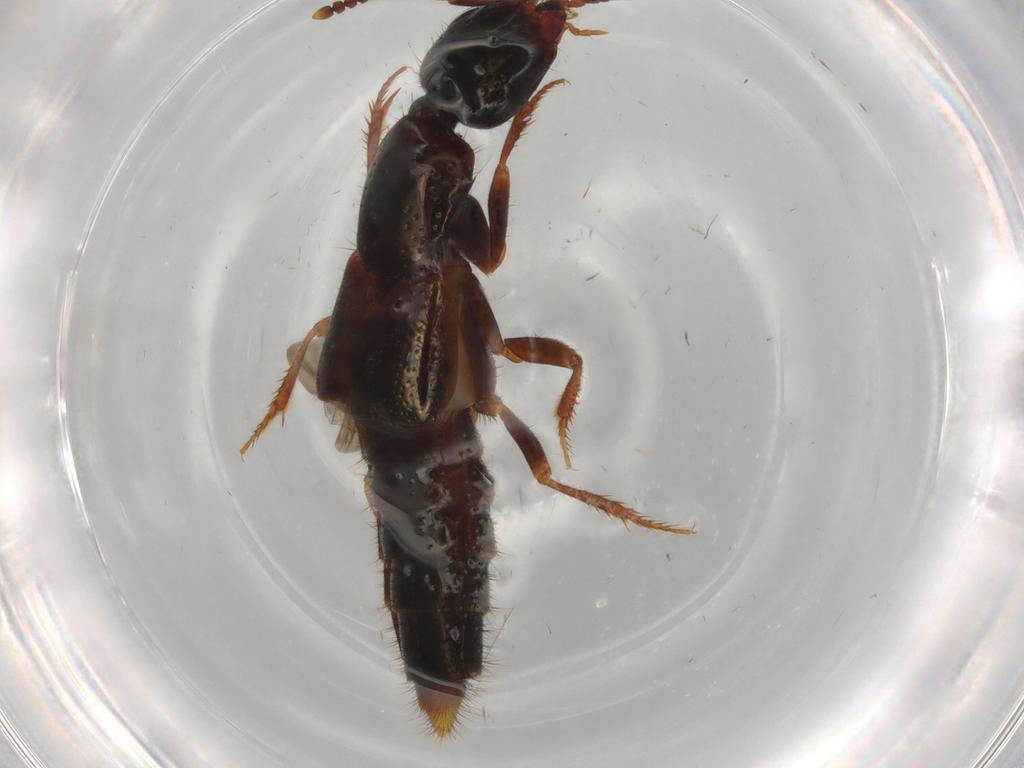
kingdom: Animalia
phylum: Arthropoda
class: Insecta
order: Coleoptera
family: Staphylinidae
